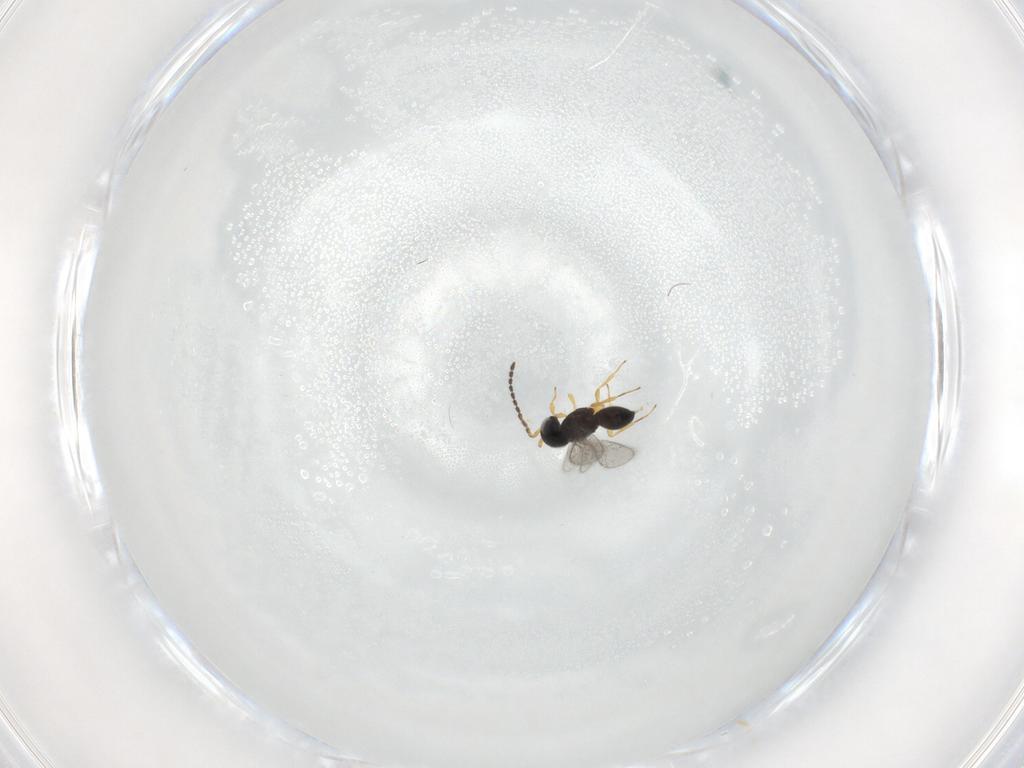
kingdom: Animalia
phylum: Arthropoda
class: Insecta
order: Hymenoptera
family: Scelionidae
